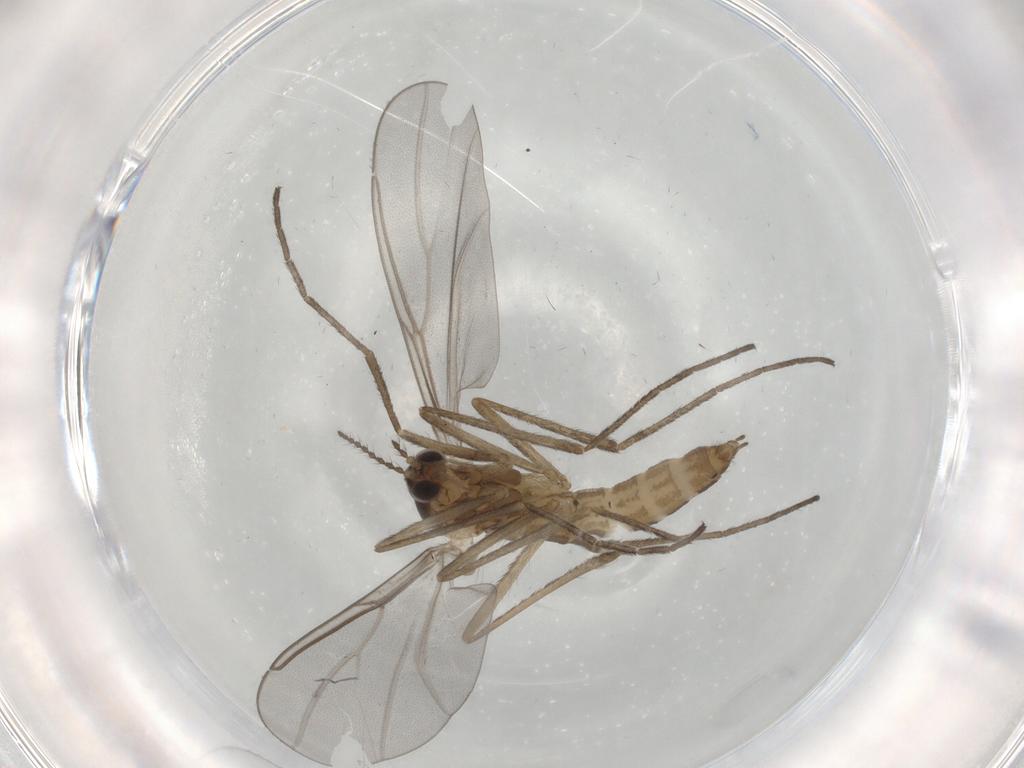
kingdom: Animalia
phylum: Arthropoda
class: Insecta
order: Diptera
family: Cecidomyiidae
